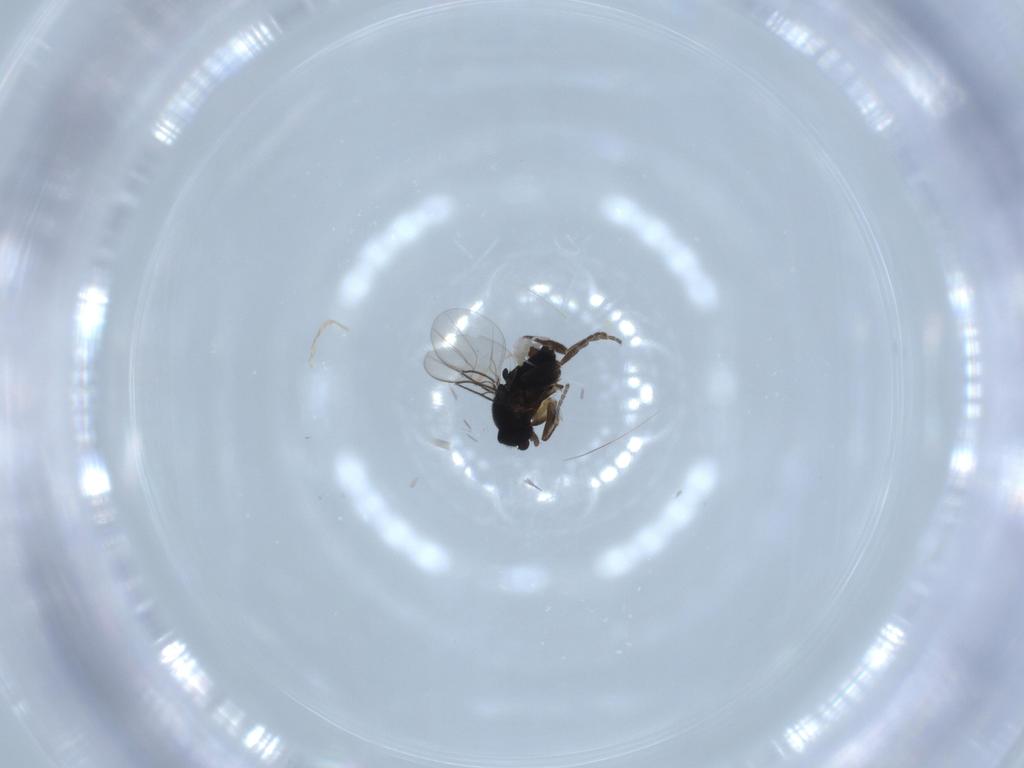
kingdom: Animalia
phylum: Arthropoda
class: Insecta
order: Diptera
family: Phoridae
